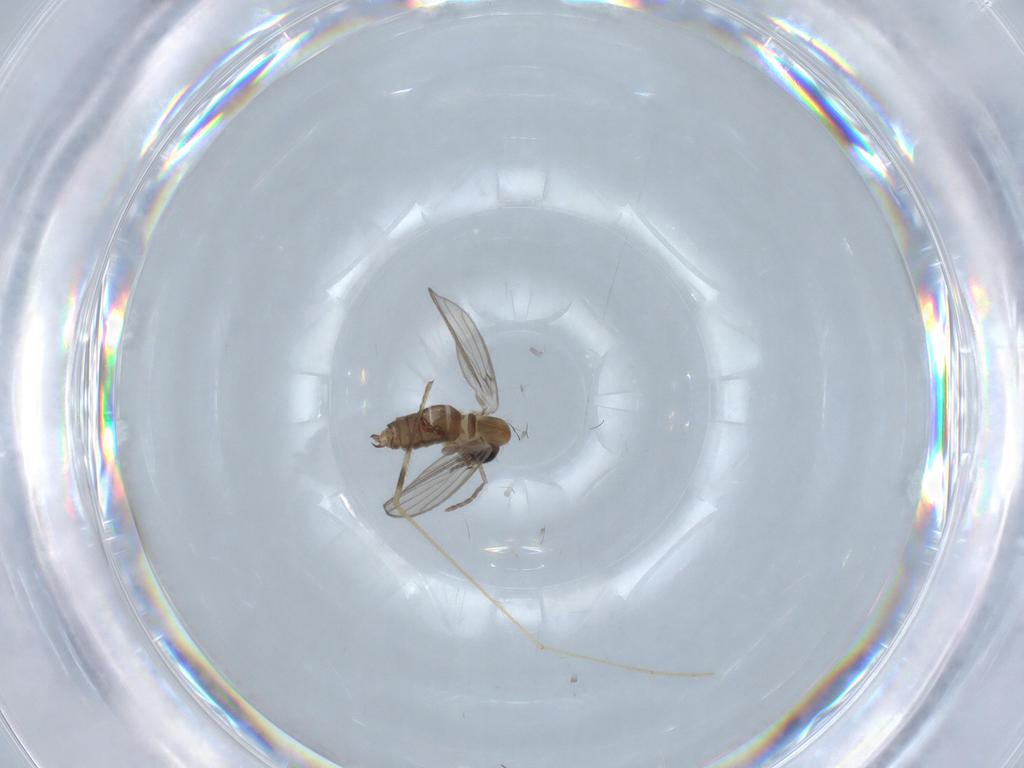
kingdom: Animalia
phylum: Arthropoda
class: Insecta
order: Diptera
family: Limoniidae
